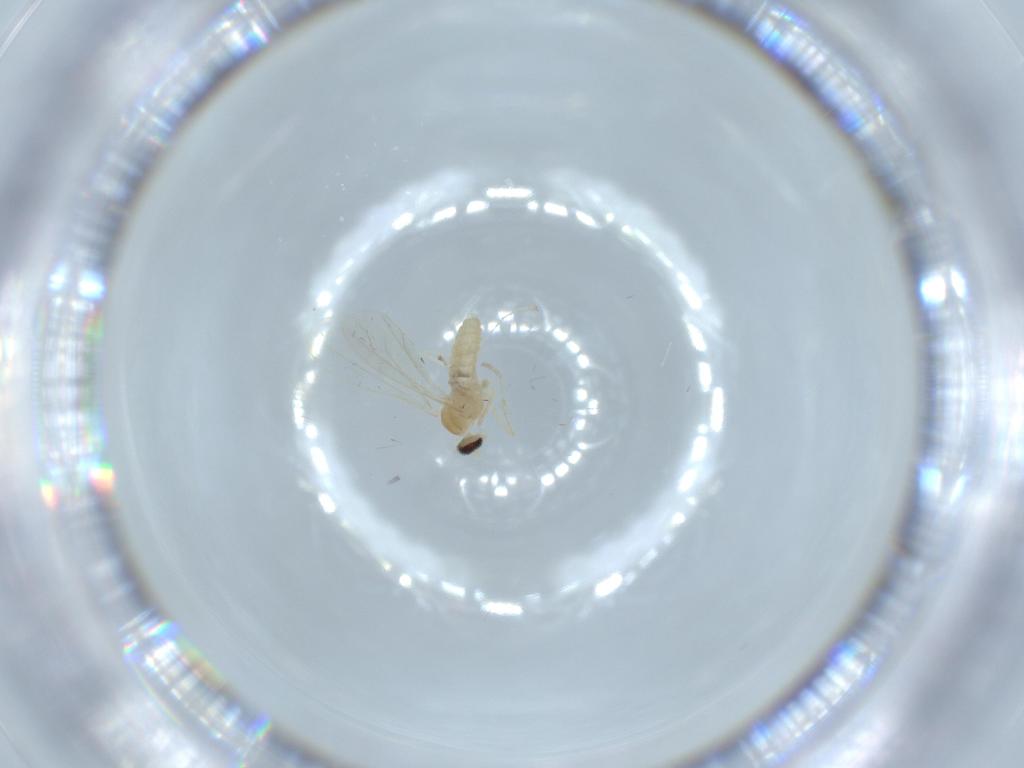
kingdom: Animalia
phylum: Arthropoda
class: Insecta
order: Diptera
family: Cecidomyiidae
